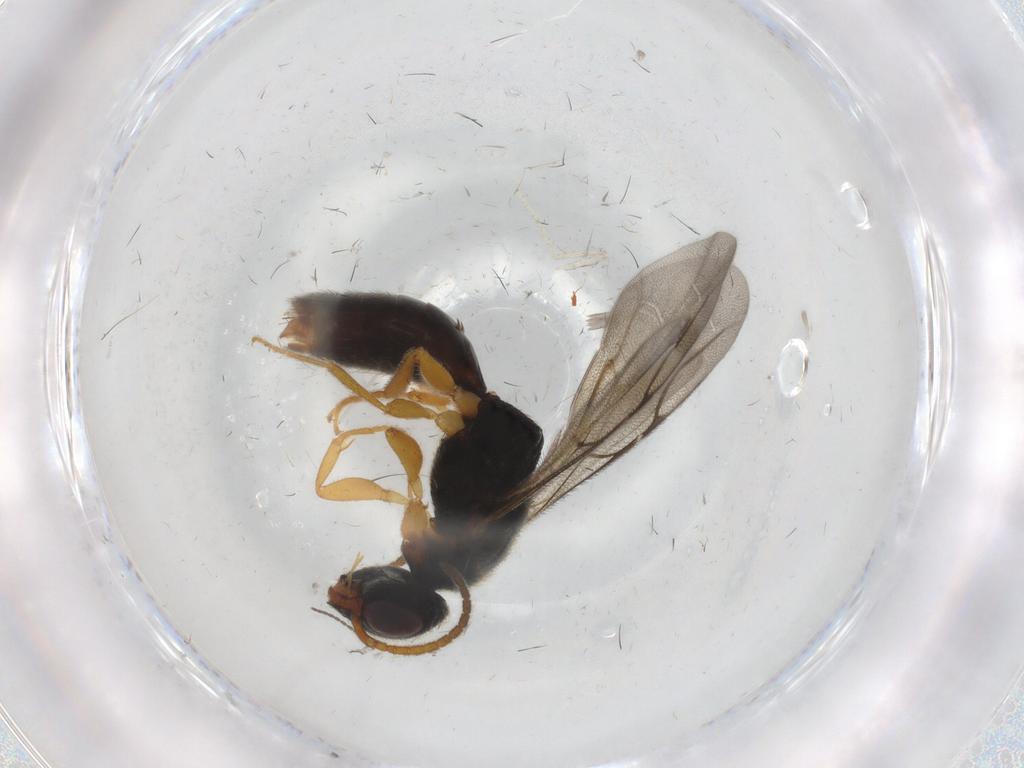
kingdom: Animalia
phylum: Arthropoda
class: Insecta
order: Hymenoptera
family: Bethylidae
